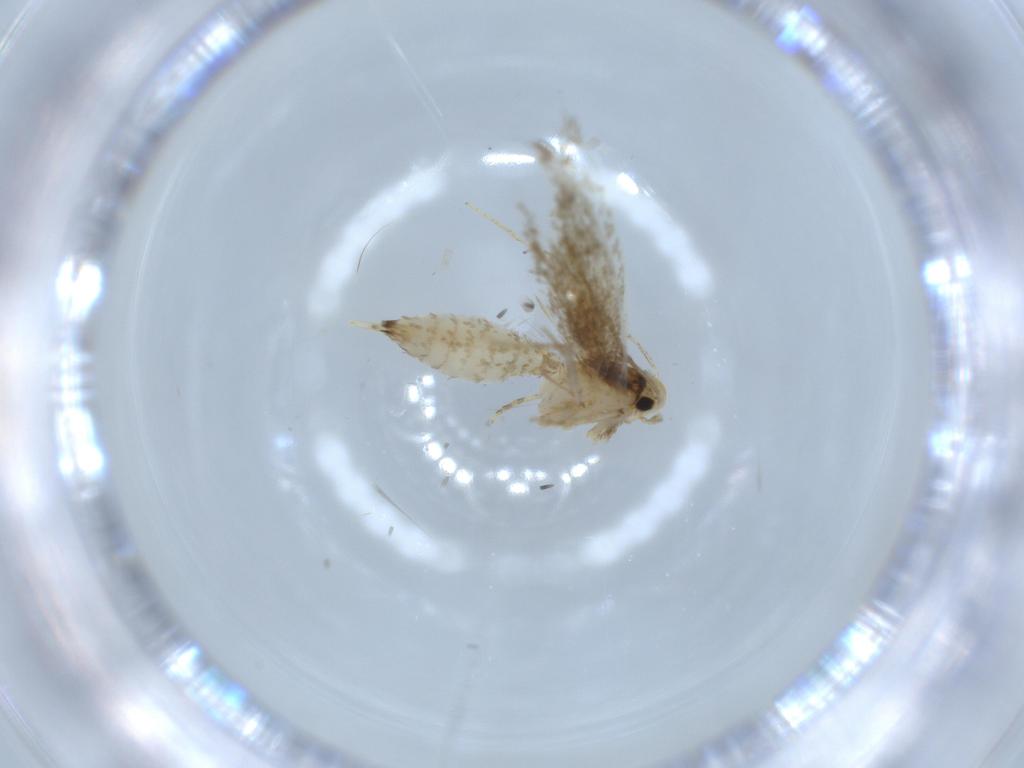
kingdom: Animalia
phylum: Arthropoda
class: Insecta
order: Lepidoptera
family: Tineidae
